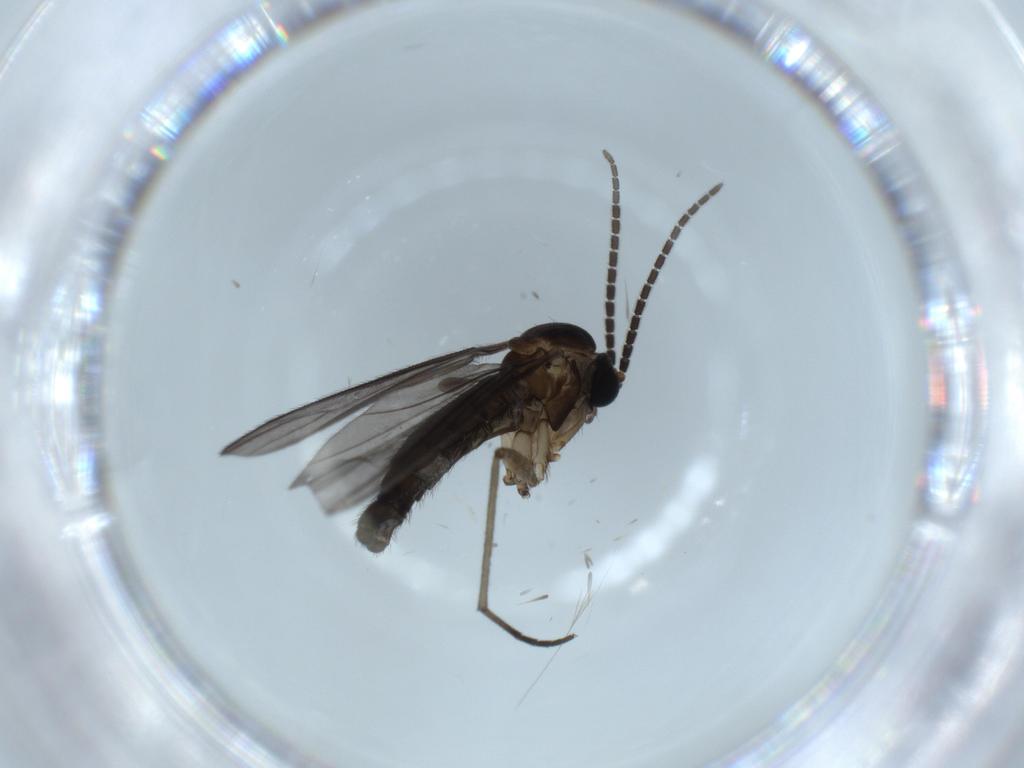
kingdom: Animalia
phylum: Arthropoda
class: Insecta
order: Diptera
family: Sciaridae
